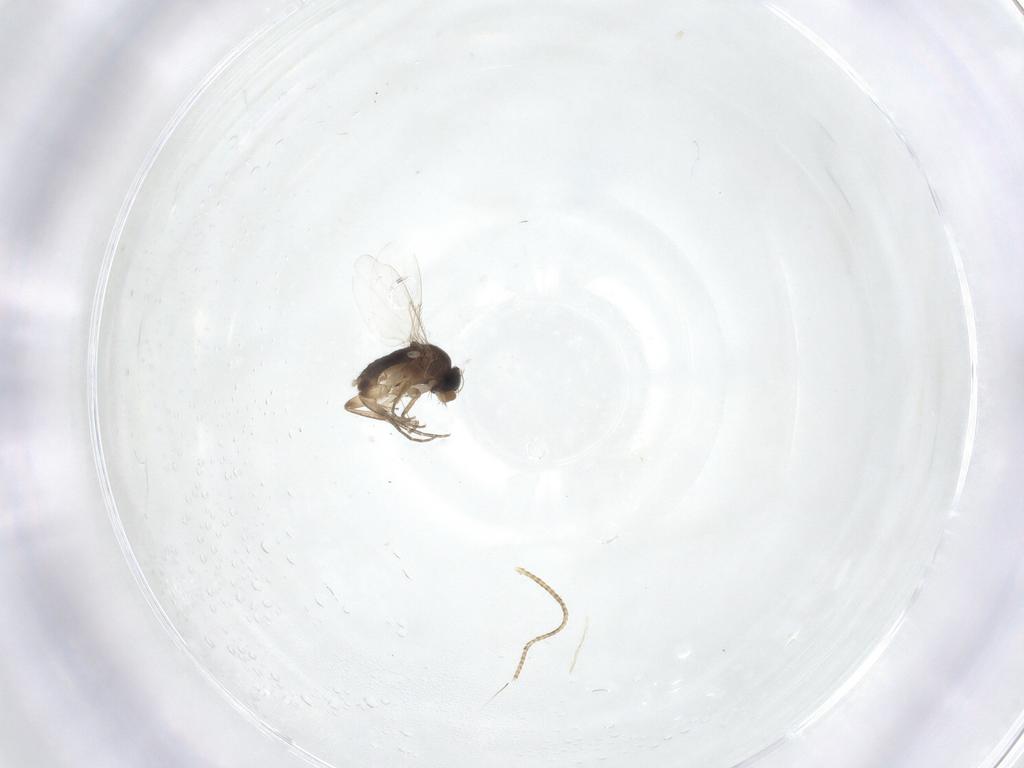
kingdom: Animalia
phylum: Arthropoda
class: Insecta
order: Diptera
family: Phoridae
